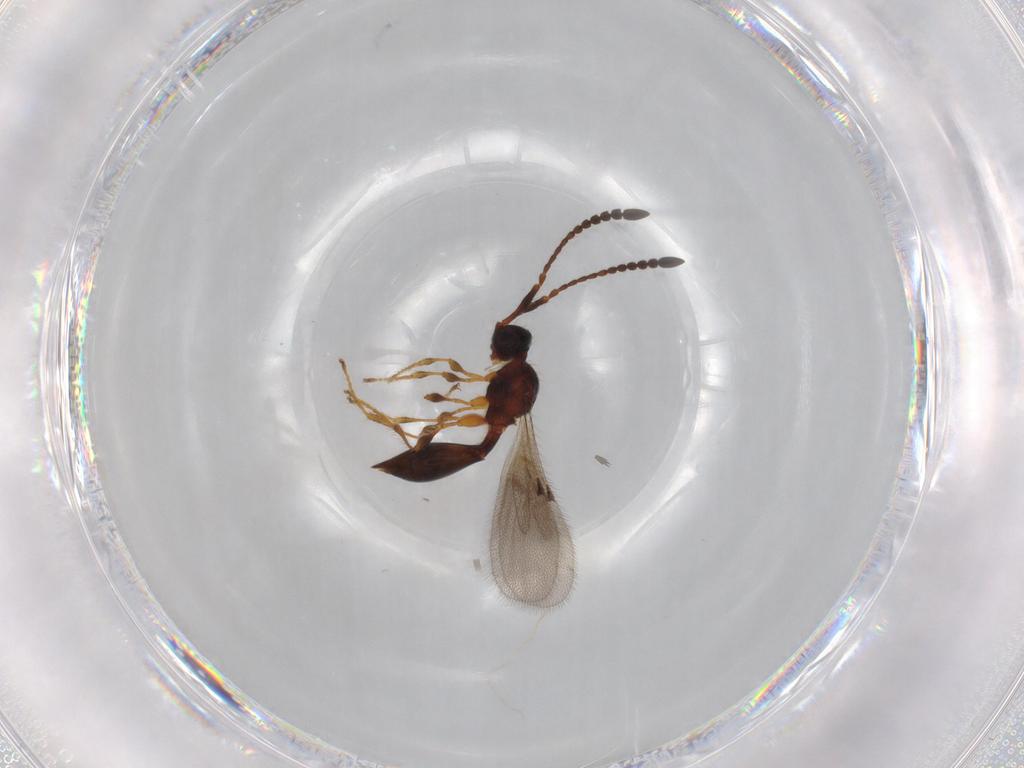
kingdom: Animalia
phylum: Arthropoda
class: Insecta
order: Hymenoptera
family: Diapriidae
